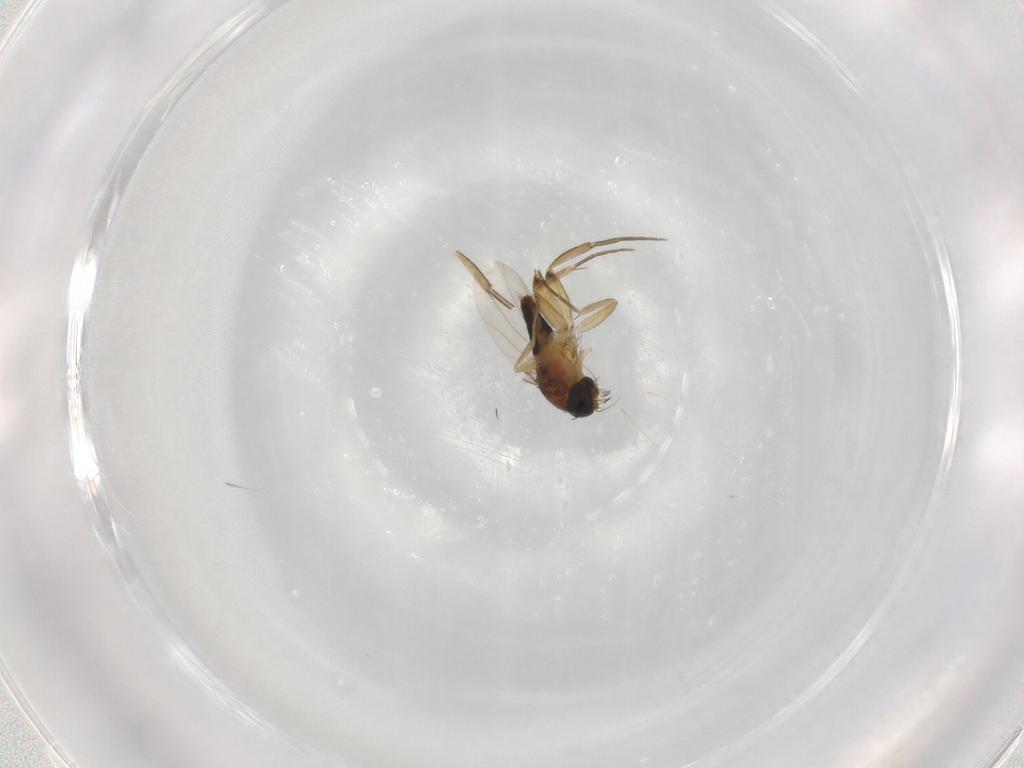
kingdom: Animalia
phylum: Arthropoda
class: Insecta
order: Diptera
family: Phoridae
